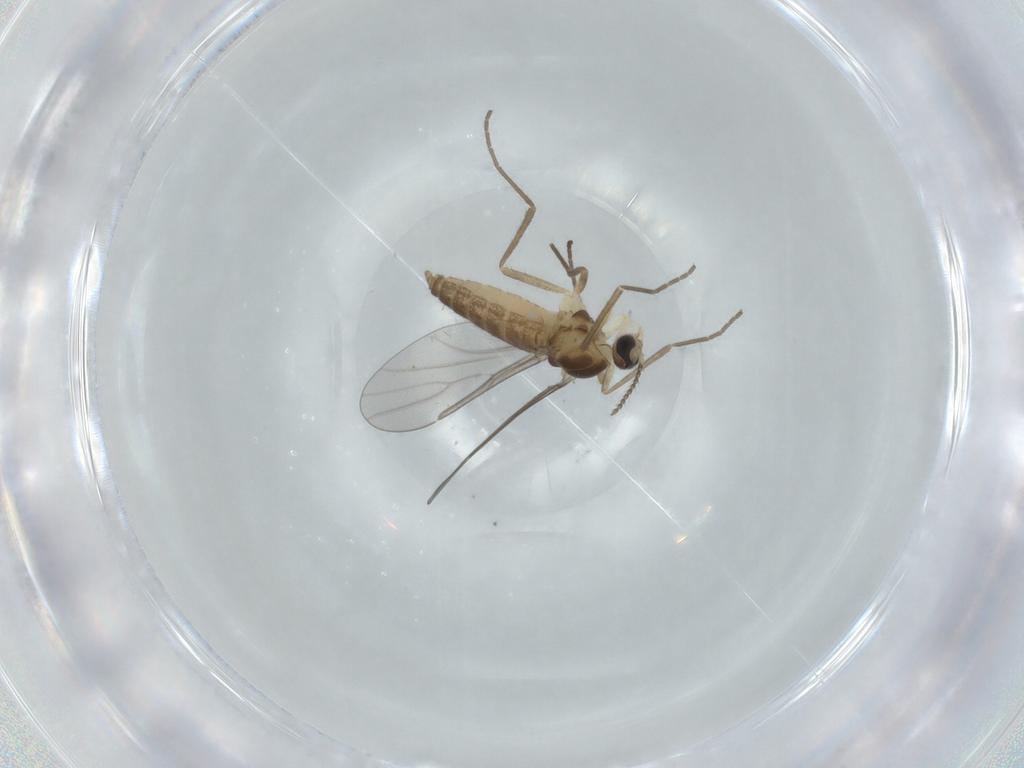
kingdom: Animalia
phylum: Arthropoda
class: Insecta
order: Diptera
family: Cecidomyiidae
